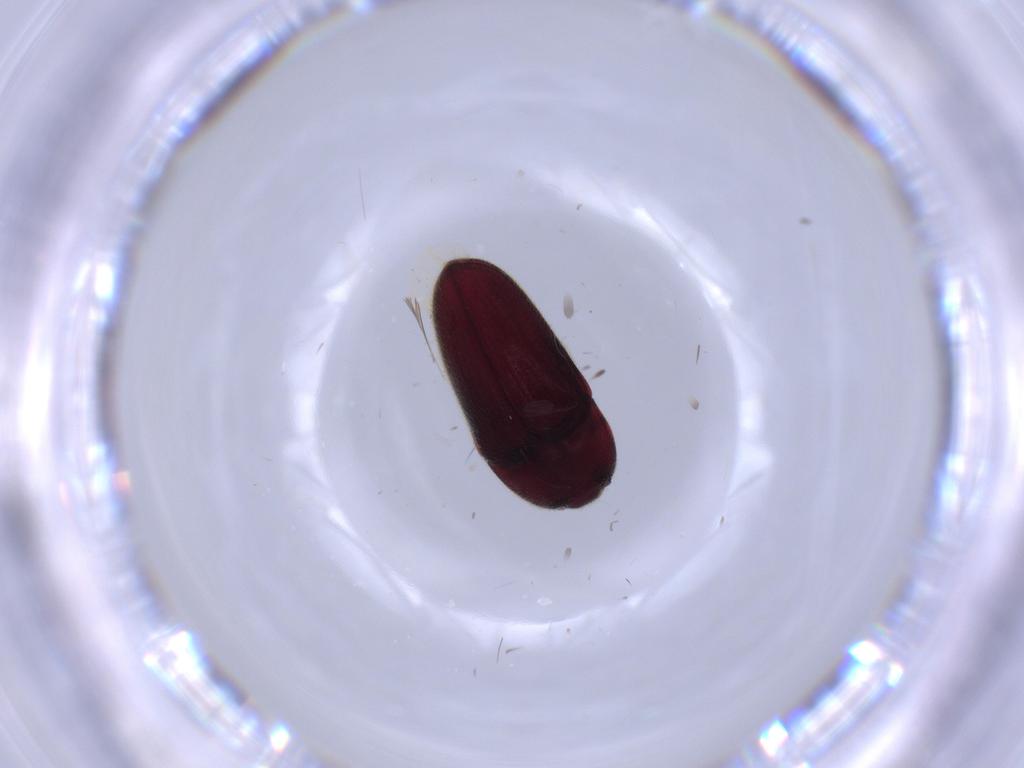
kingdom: Animalia
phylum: Arthropoda
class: Insecta
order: Coleoptera
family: Throscidae
